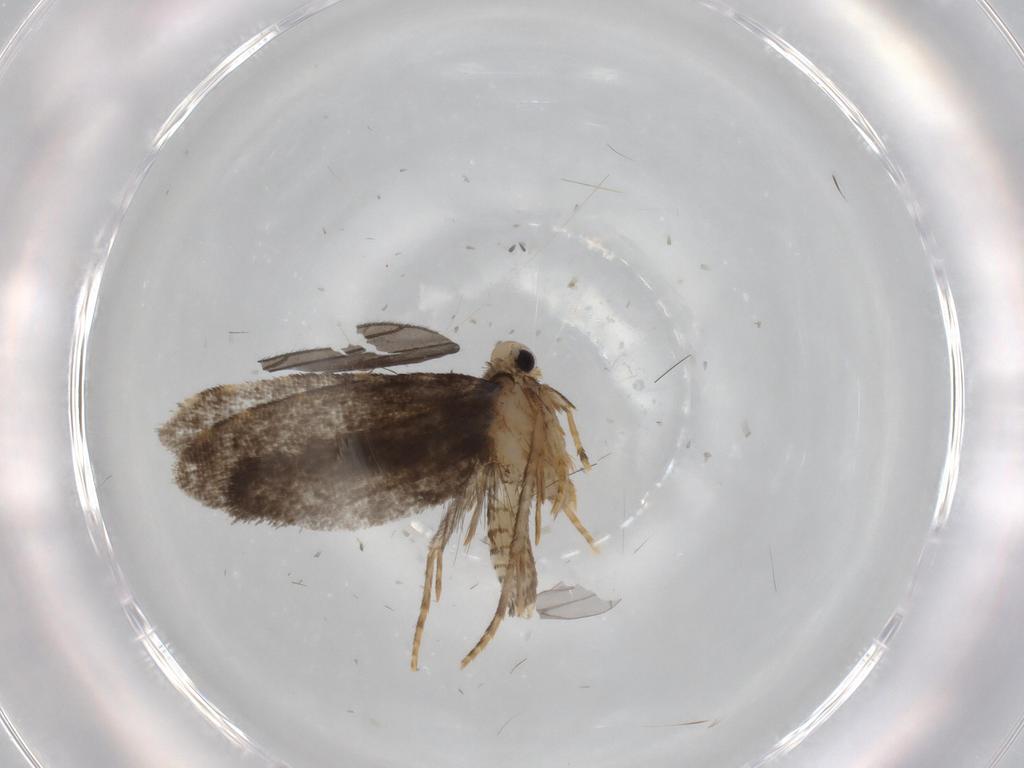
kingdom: Animalia
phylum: Arthropoda
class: Insecta
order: Lepidoptera
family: Psychidae
